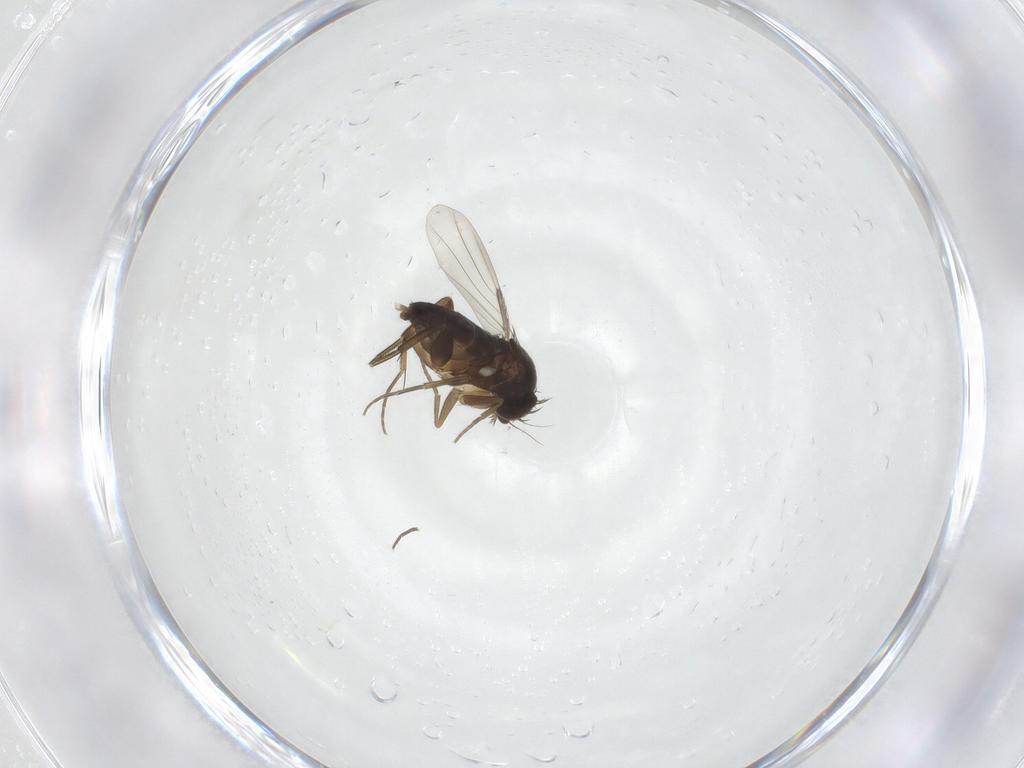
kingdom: Animalia
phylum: Arthropoda
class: Insecta
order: Diptera
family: Phoridae
